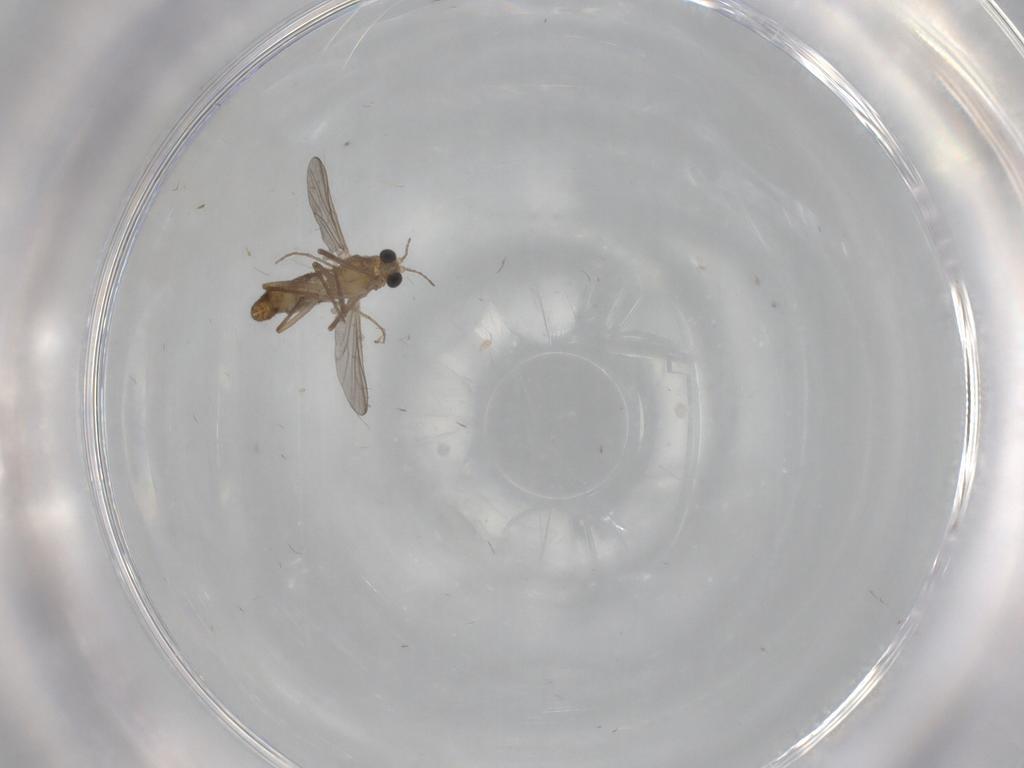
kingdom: Animalia
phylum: Arthropoda
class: Insecta
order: Diptera
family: Chironomidae
